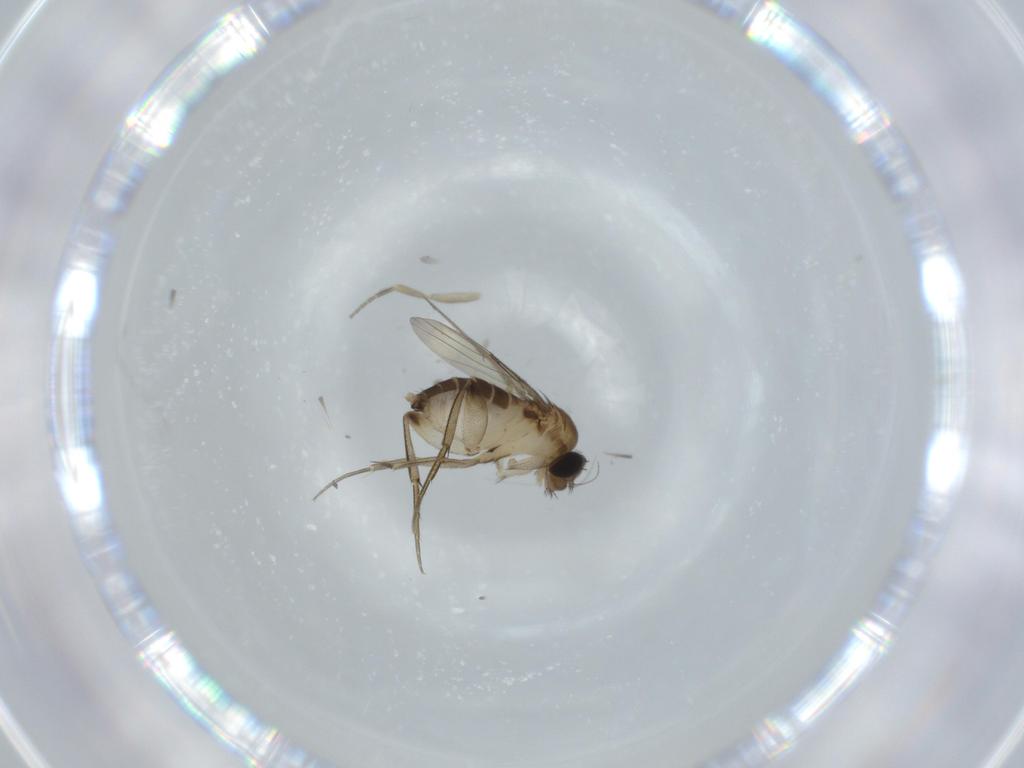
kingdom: Animalia
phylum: Arthropoda
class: Insecta
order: Diptera
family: Phoridae
